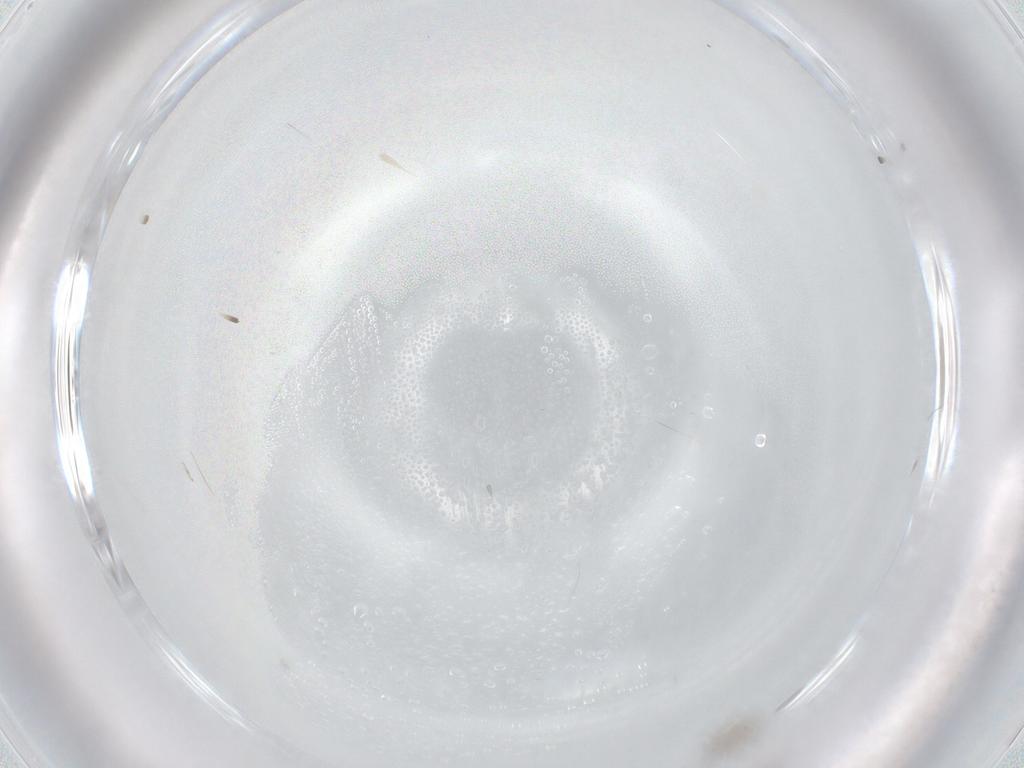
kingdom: Animalia
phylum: Arthropoda
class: Insecta
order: Hymenoptera
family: Mymaridae
